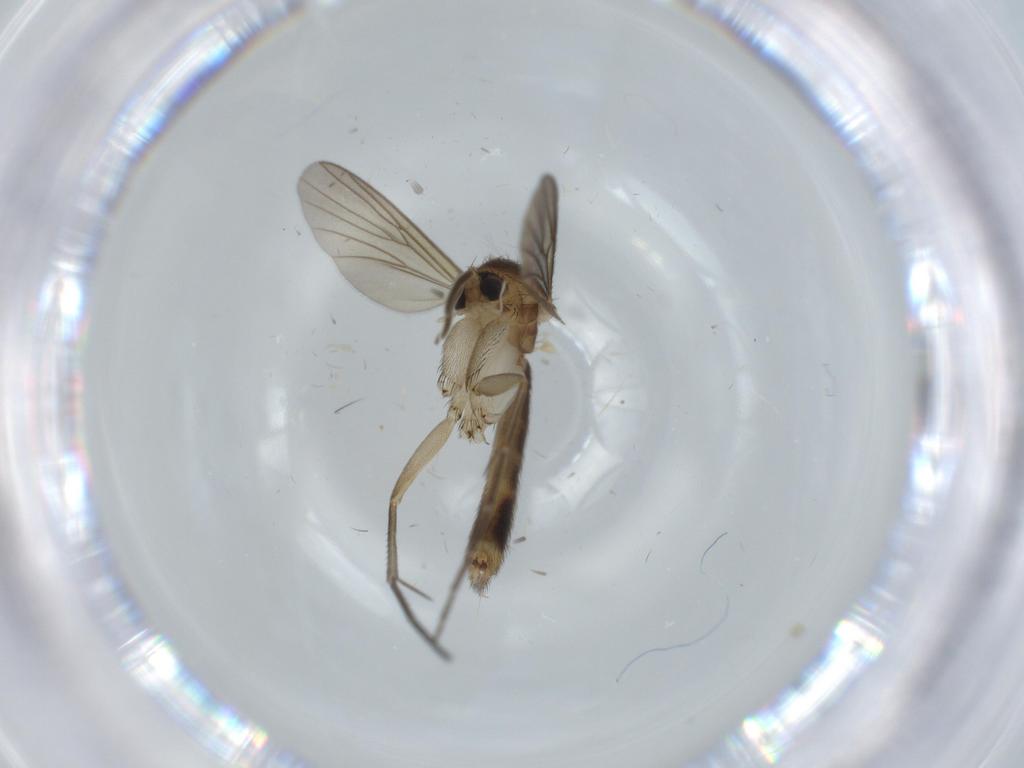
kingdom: Animalia
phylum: Arthropoda
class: Insecta
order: Diptera
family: Mycetophilidae
